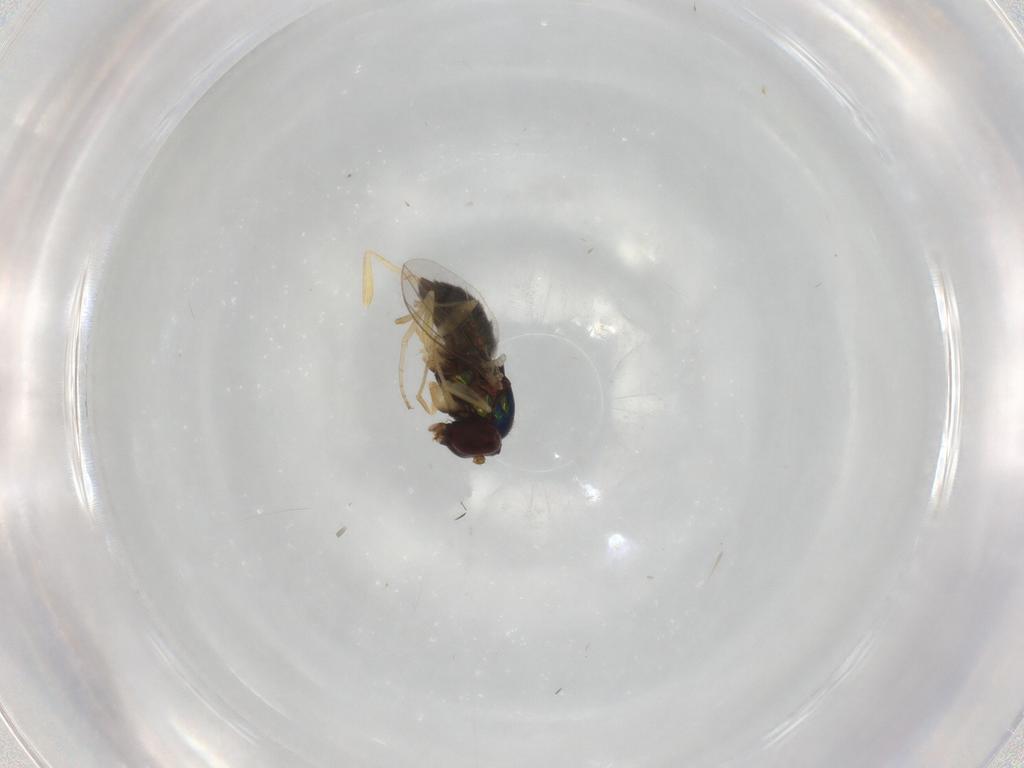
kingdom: Animalia
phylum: Arthropoda
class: Insecta
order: Diptera
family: Dolichopodidae
